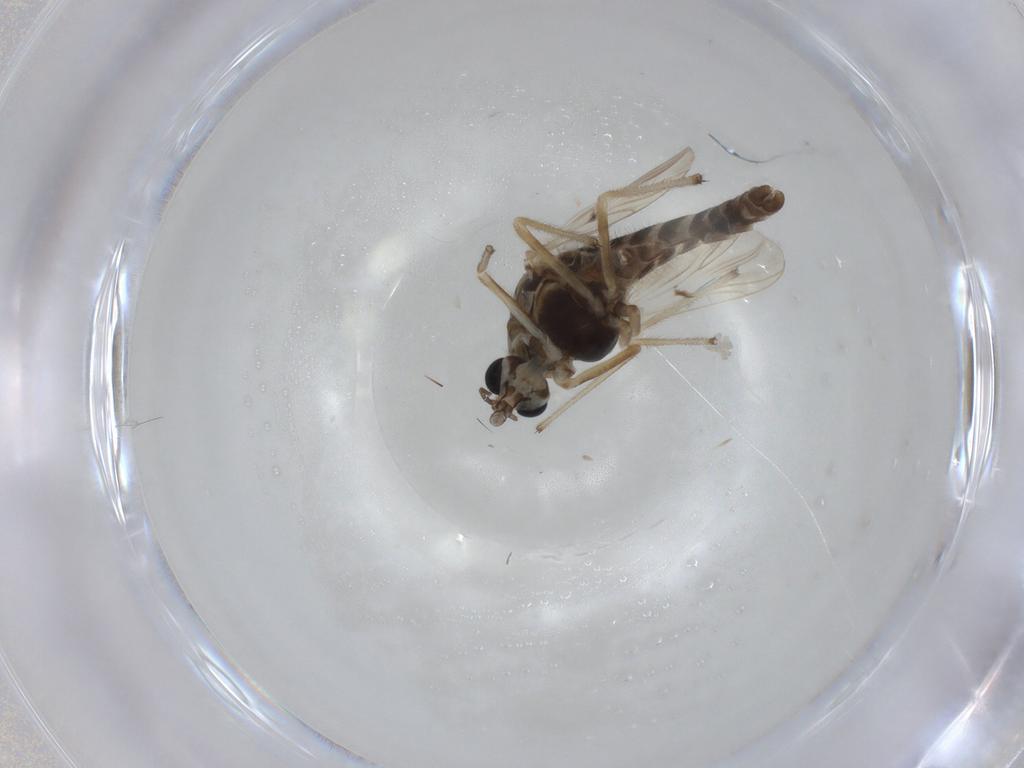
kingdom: Animalia
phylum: Arthropoda
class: Insecta
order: Diptera
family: Chironomidae
